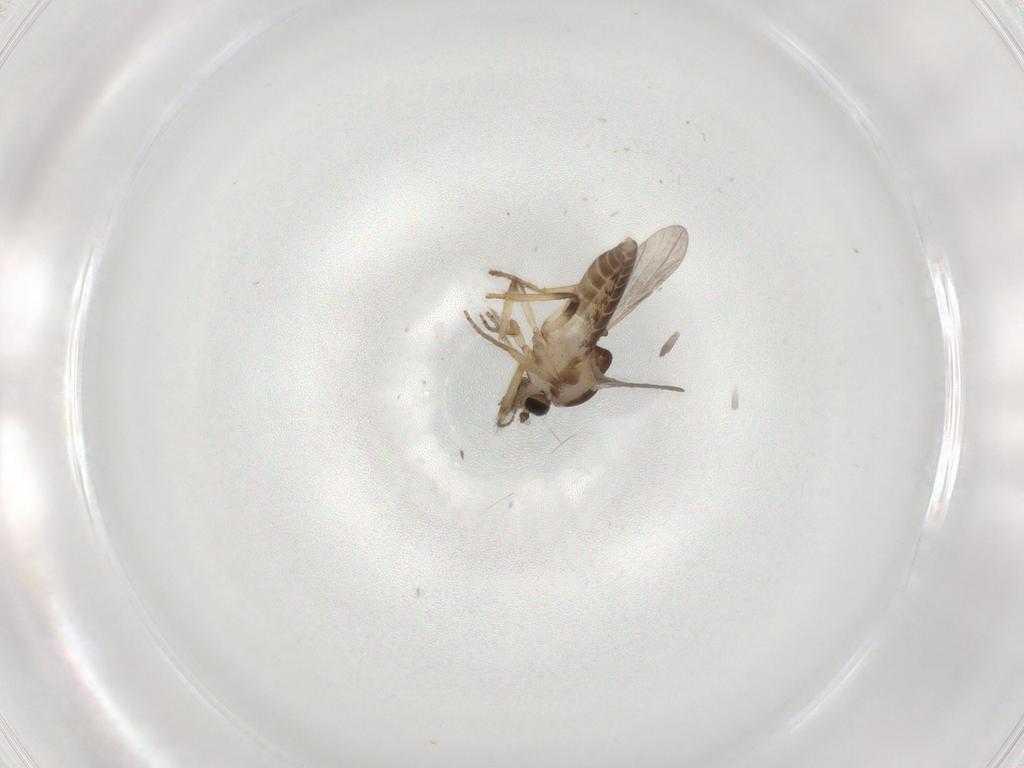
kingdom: Animalia
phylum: Arthropoda
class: Insecta
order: Diptera
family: Ceratopogonidae
